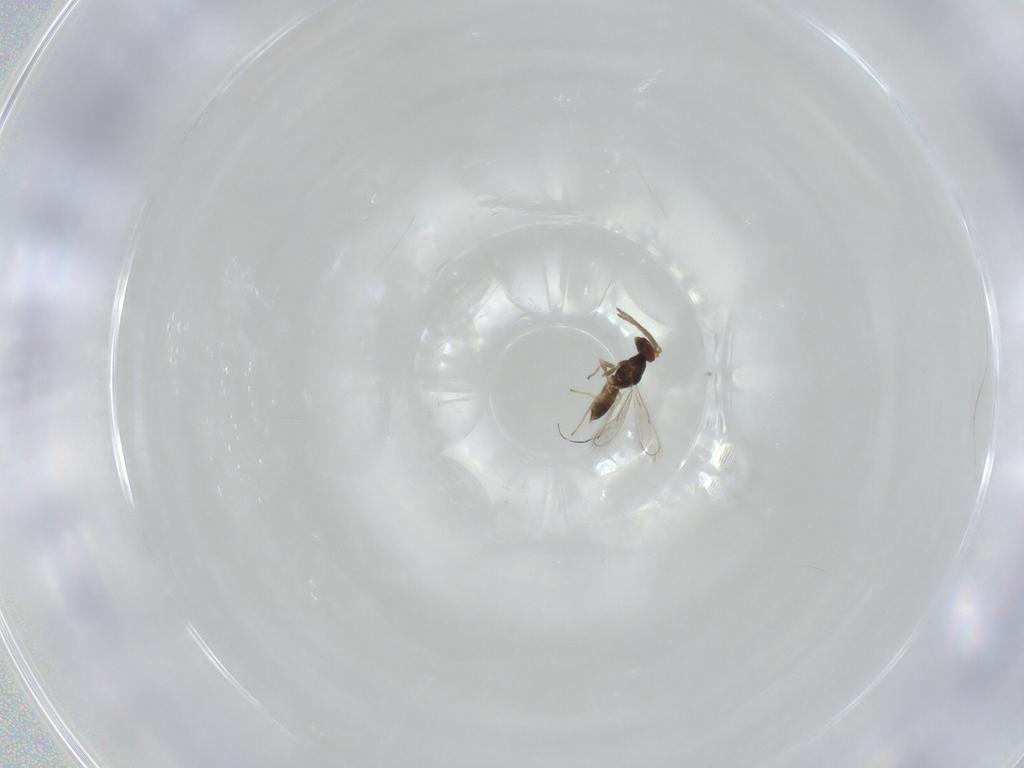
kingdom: Animalia
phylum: Arthropoda
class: Insecta
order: Hymenoptera
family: Eulophidae
